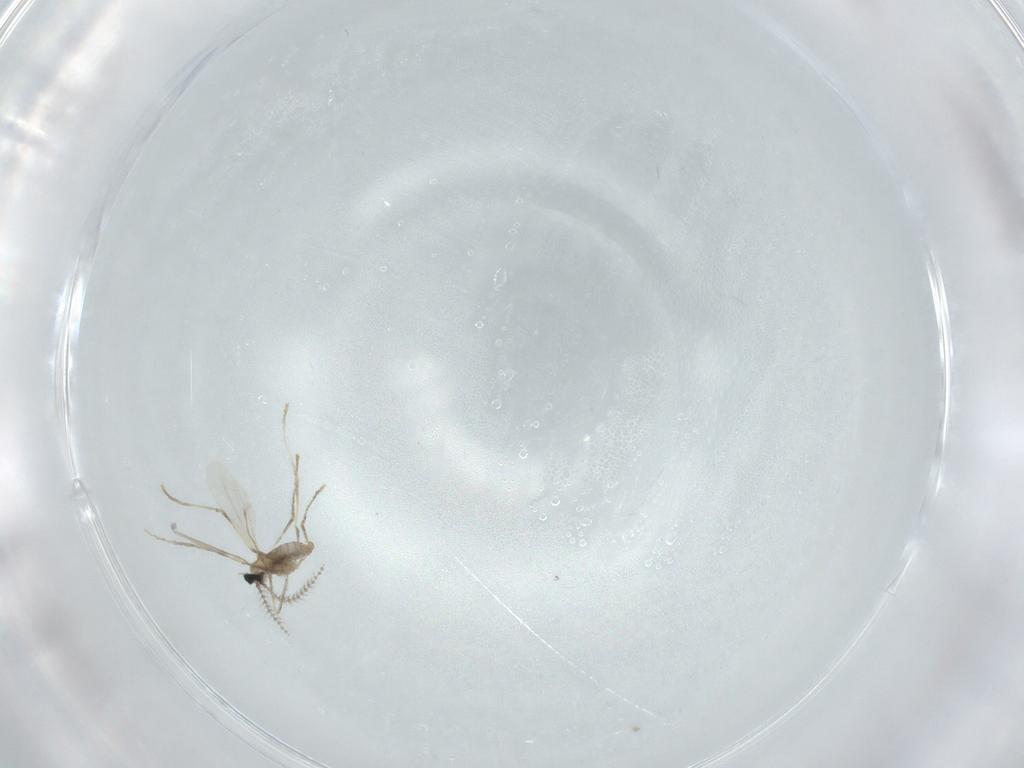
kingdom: Animalia
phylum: Arthropoda
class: Insecta
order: Diptera
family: Cecidomyiidae
